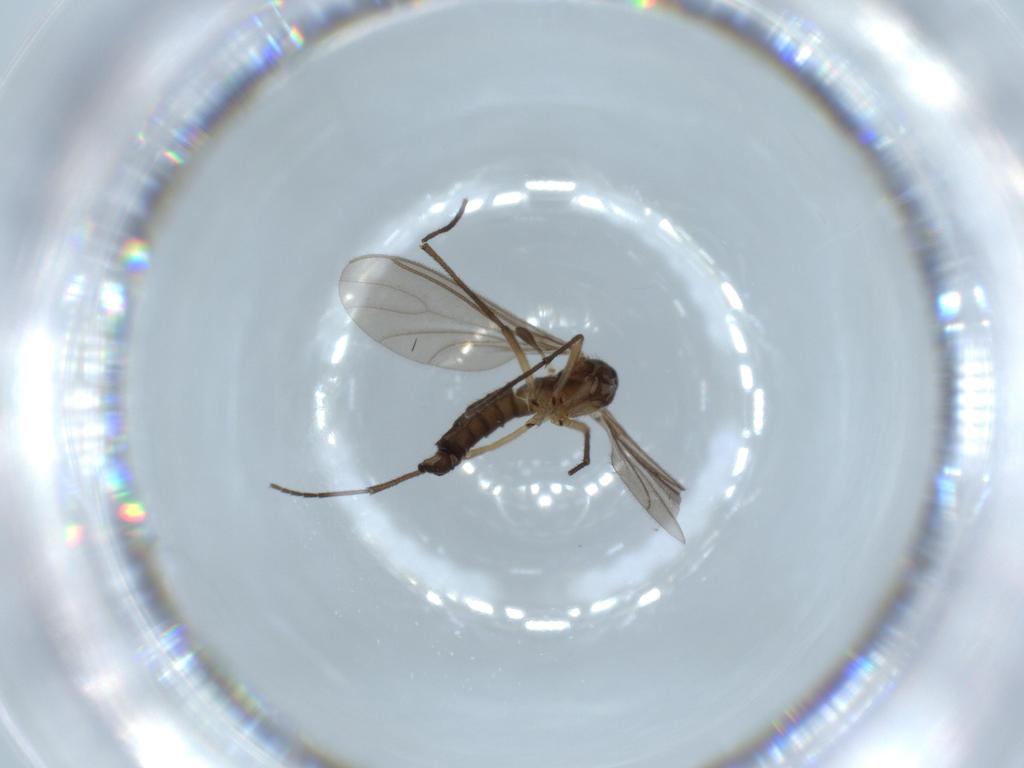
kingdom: Animalia
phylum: Arthropoda
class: Insecta
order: Diptera
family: Sciaridae
